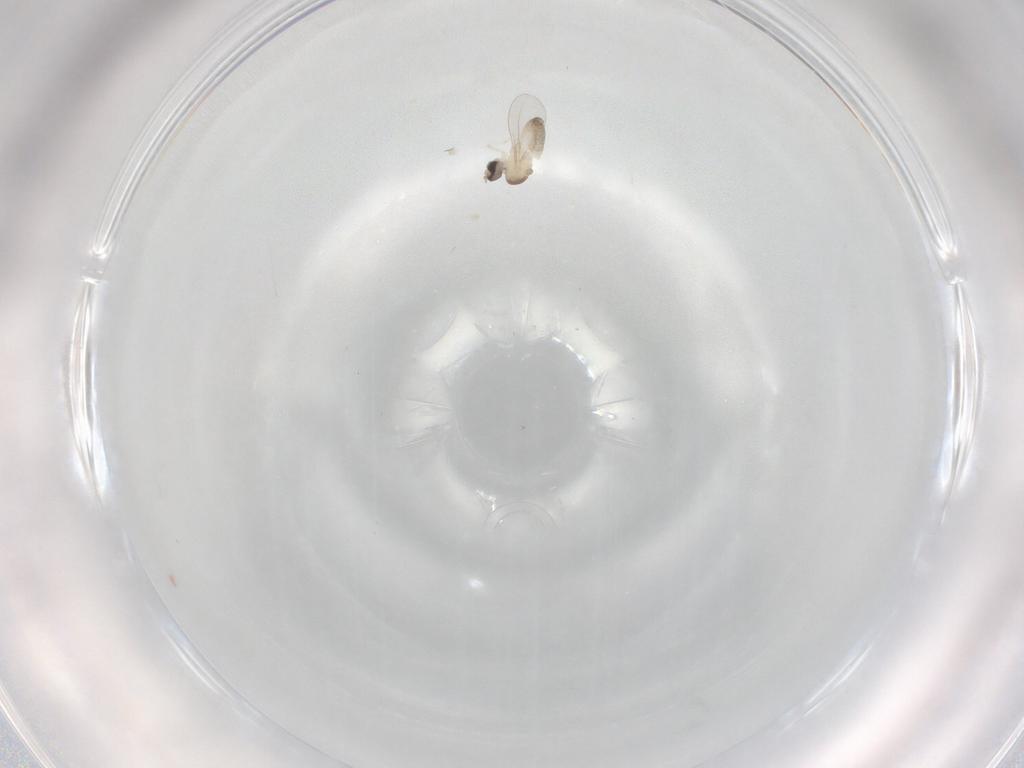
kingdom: Animalia
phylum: Arthropoda
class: Insecta
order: Diptera
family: Cecidomyiidae
